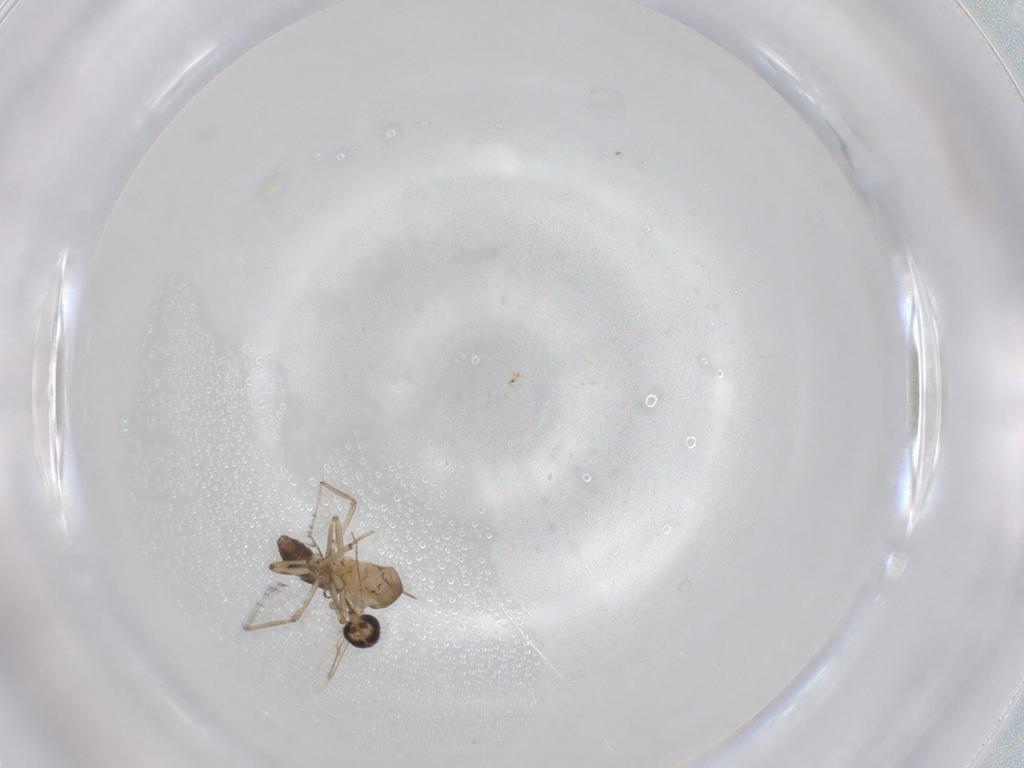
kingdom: Animalia
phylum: Arthropoda
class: Insecta
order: Diptera
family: Ceratopogonidae
